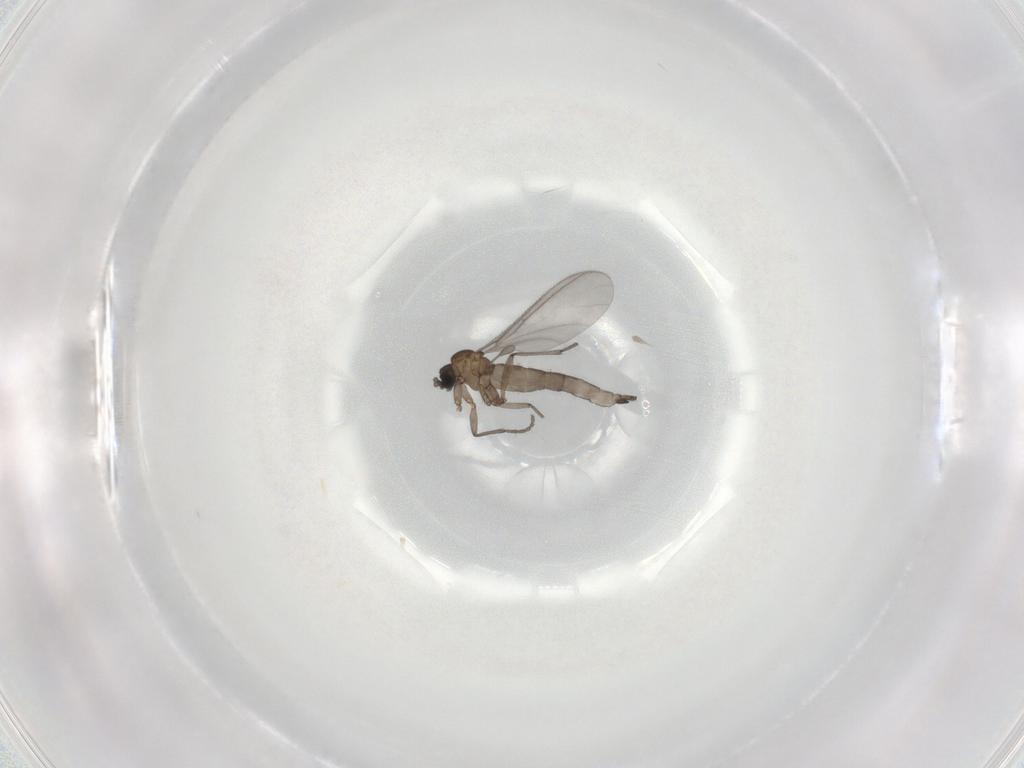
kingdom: Animalia
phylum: Arthropoda
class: Insecta
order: Diptera
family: Sciaridae
